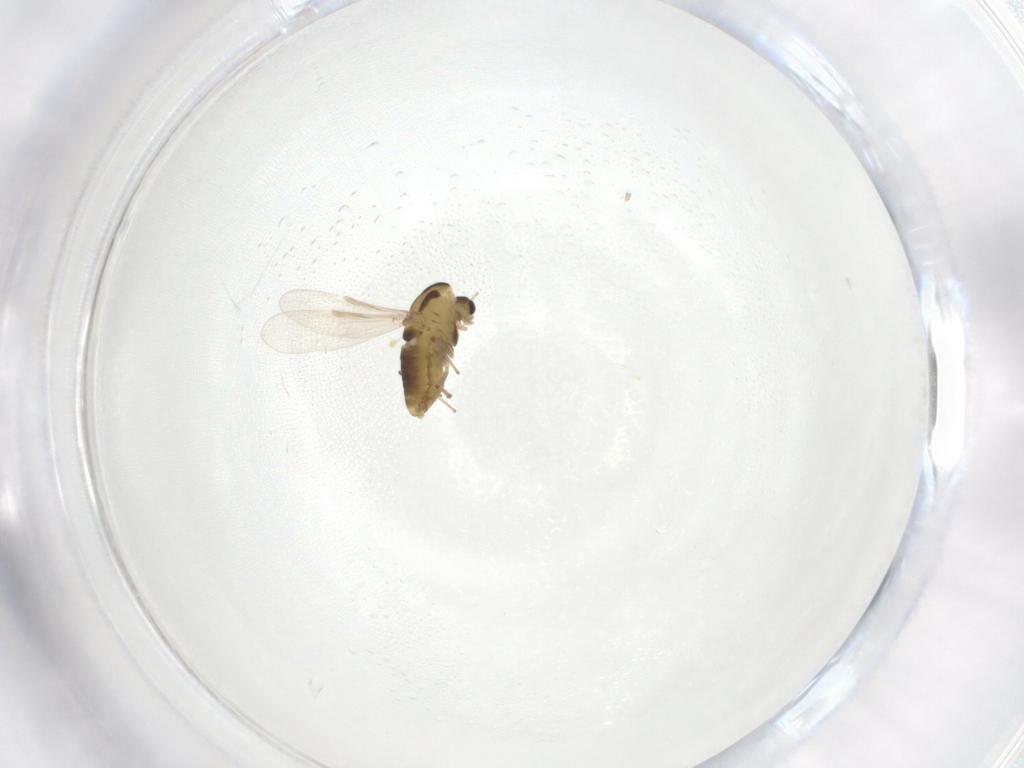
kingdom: Animalia
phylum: Arthropoda
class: Insecta
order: Diptera
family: Chironomidae
